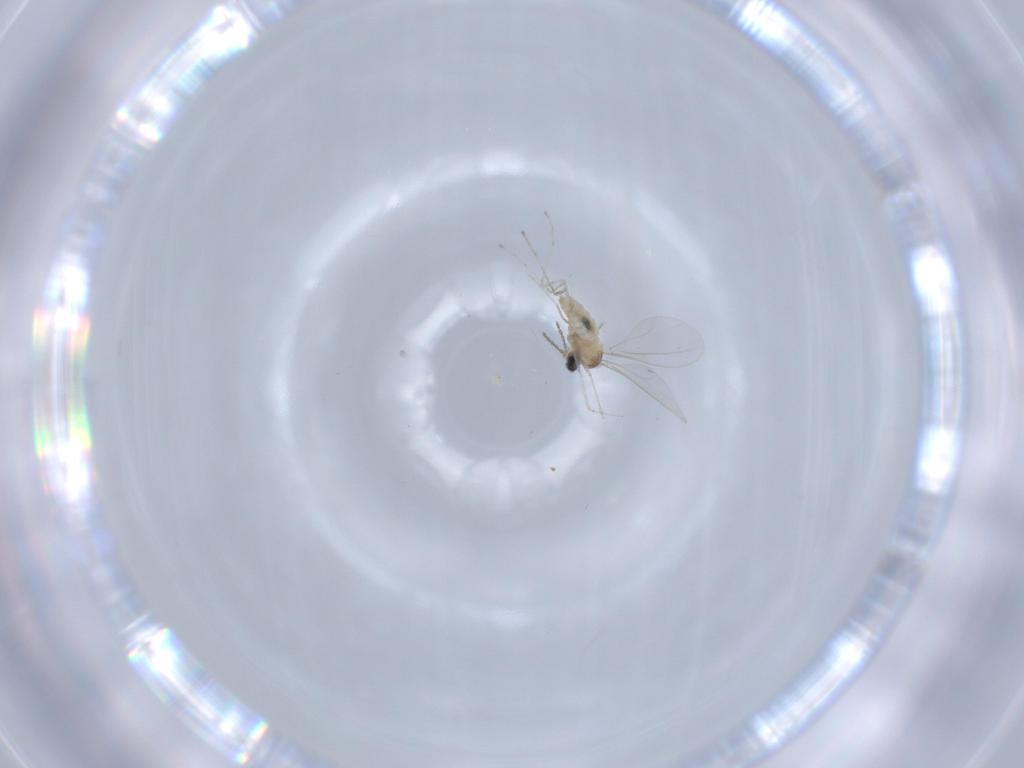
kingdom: Animalia
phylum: Arthropoda
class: Insecta
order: Diptera
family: Cecidomyiidae
